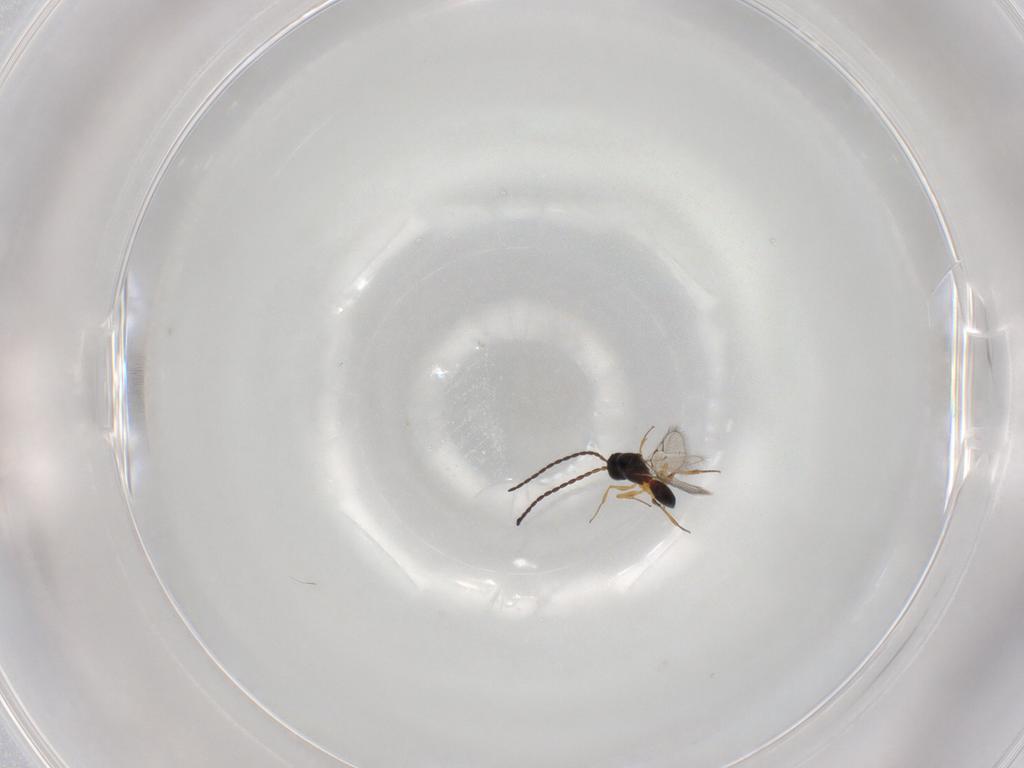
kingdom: Animalia
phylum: Arthropoda
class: Insecta
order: Hymenoptera
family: Figitidae
